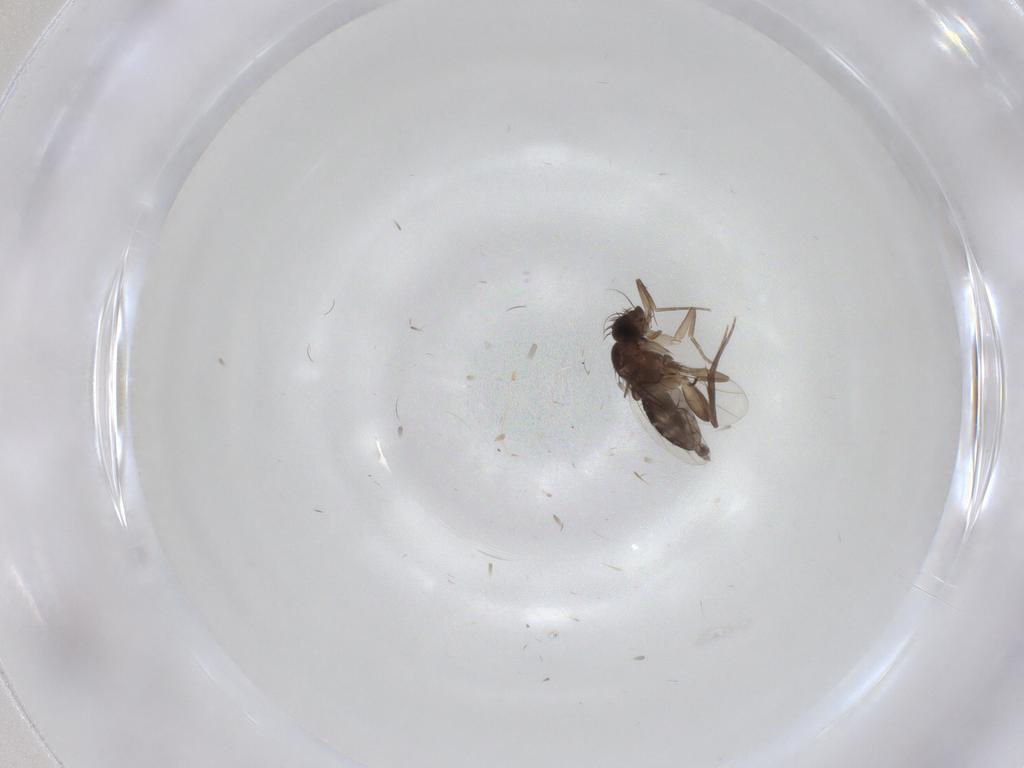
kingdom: Animalia
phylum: Arthropoda
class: Insecta
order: Diptera
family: Phoridae
